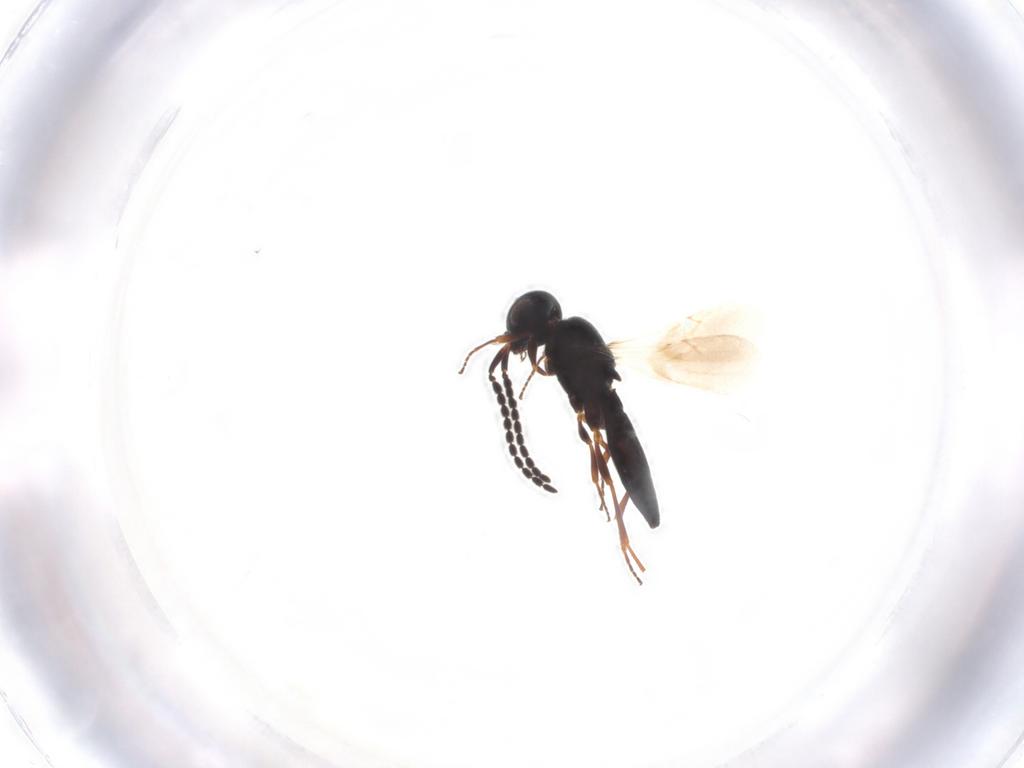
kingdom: Animalia
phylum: Arthropoda
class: Insecta
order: Hymenoptera
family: Scelionidae
